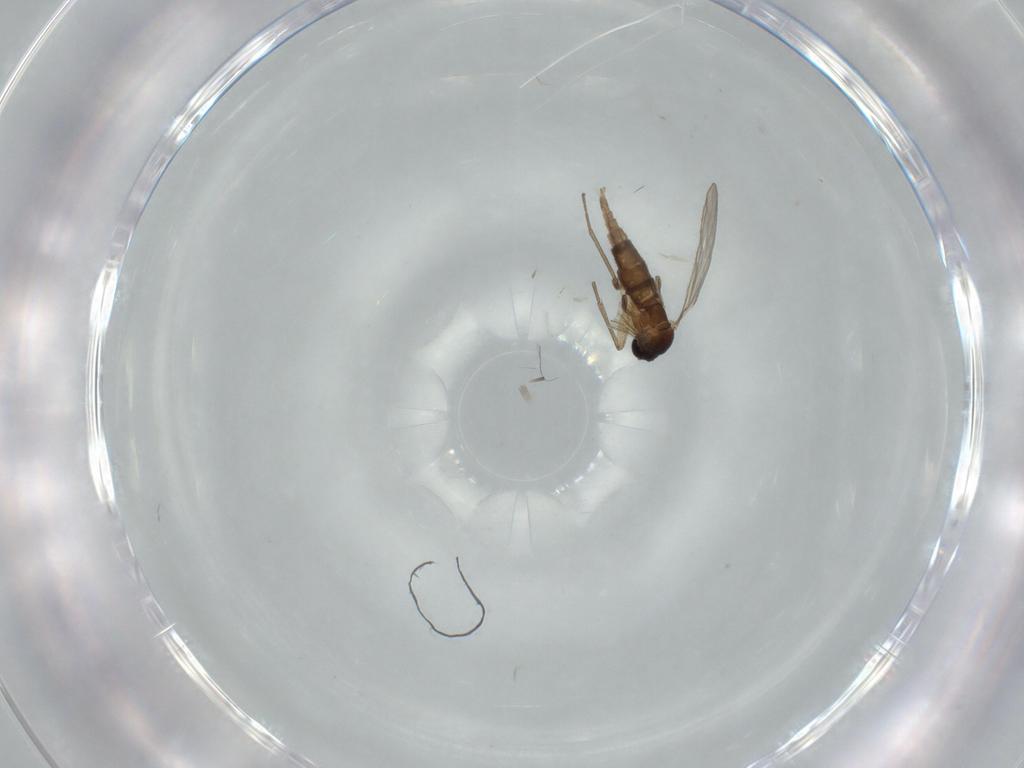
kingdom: Animalia
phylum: Arthropoda
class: Insecta
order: Diptera
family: Sciaridae
